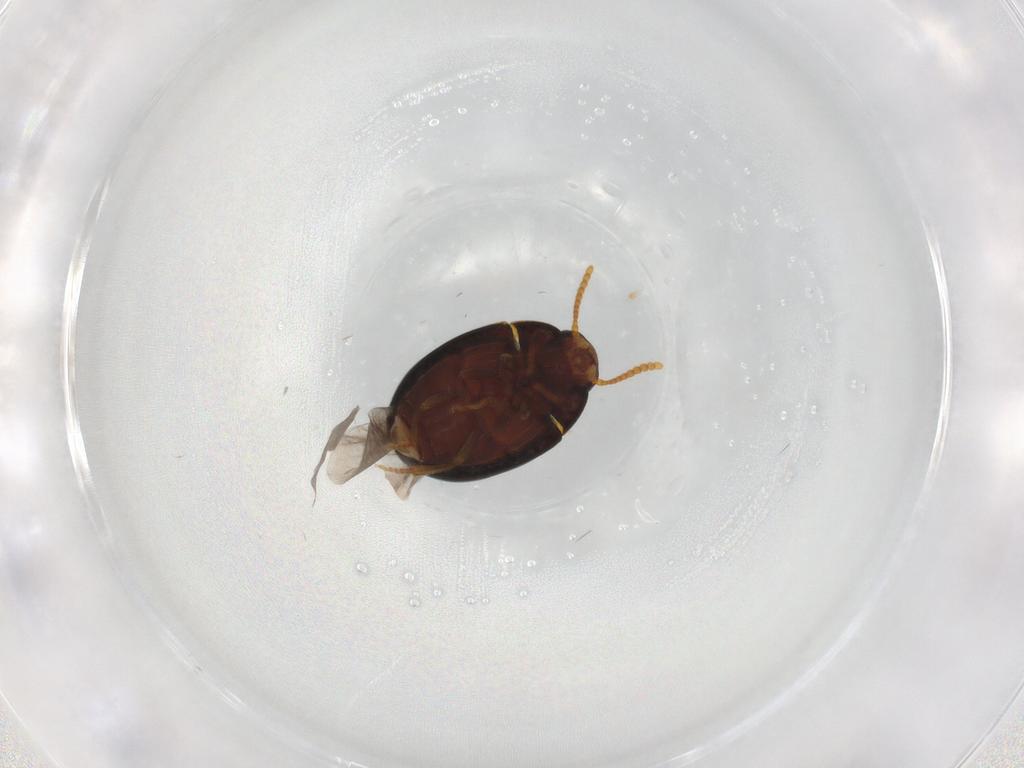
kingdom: Animalia
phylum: Arthropoda
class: Insecta
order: Coleoptera
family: Tenebrionidae
